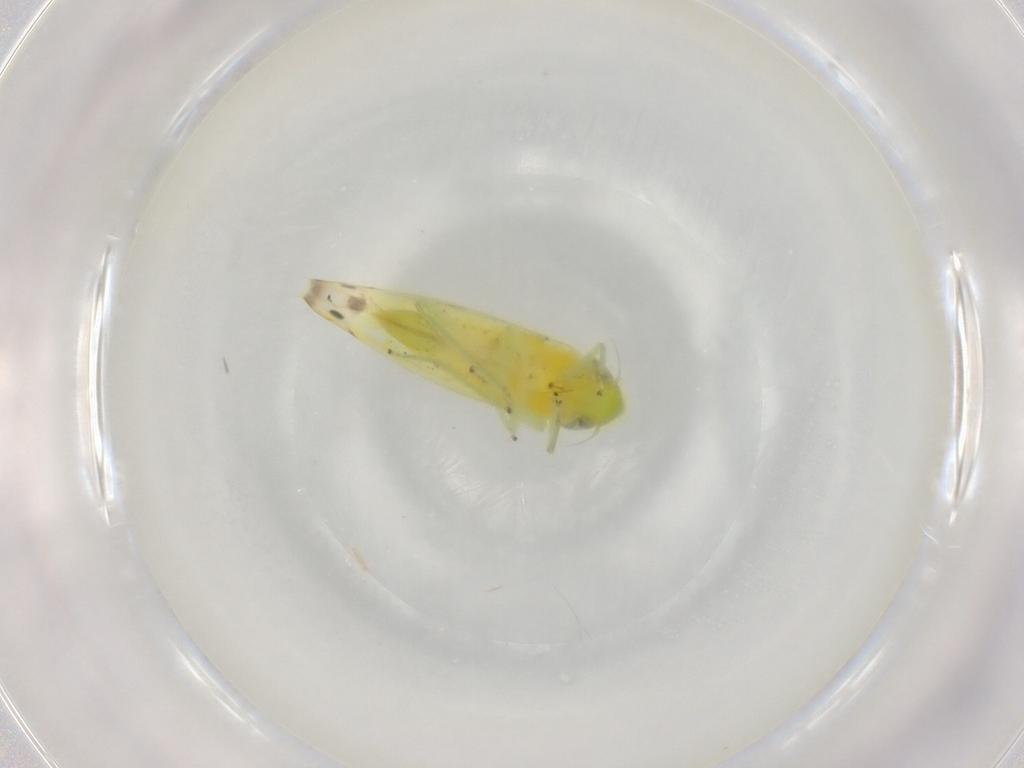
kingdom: Animalia
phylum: Arthropoda
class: Insecta
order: Hemiptera
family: Cicadellidae
